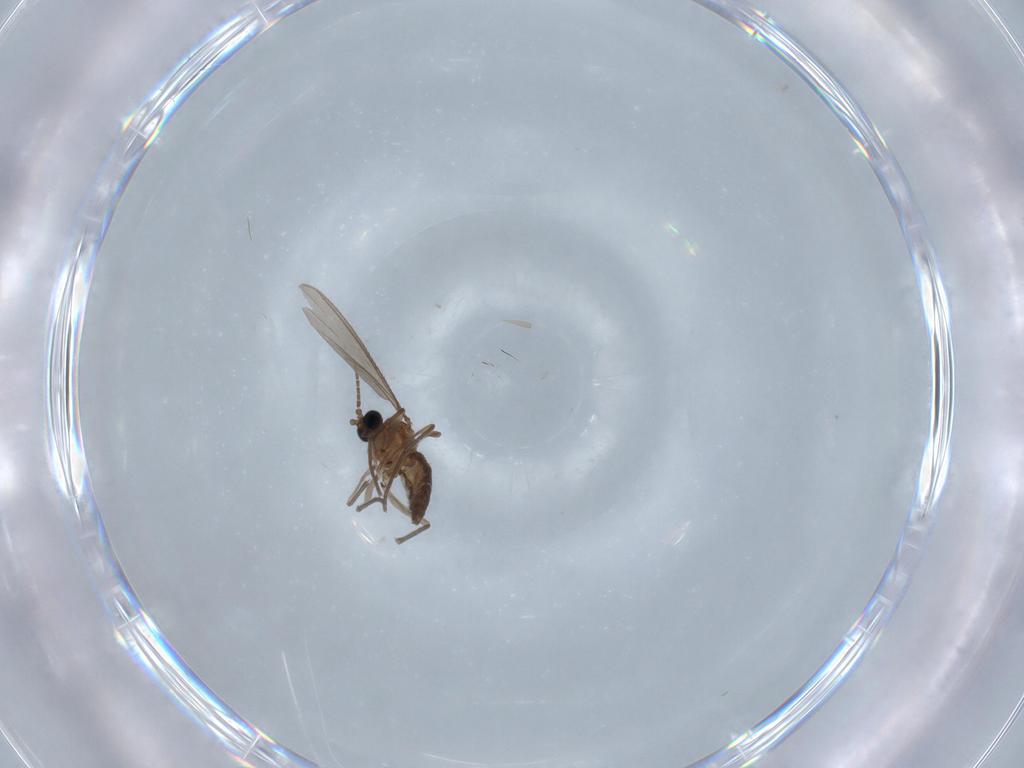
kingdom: Animalia
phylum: Arthropoda
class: Insecta
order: Diptera
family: Sciaridae
